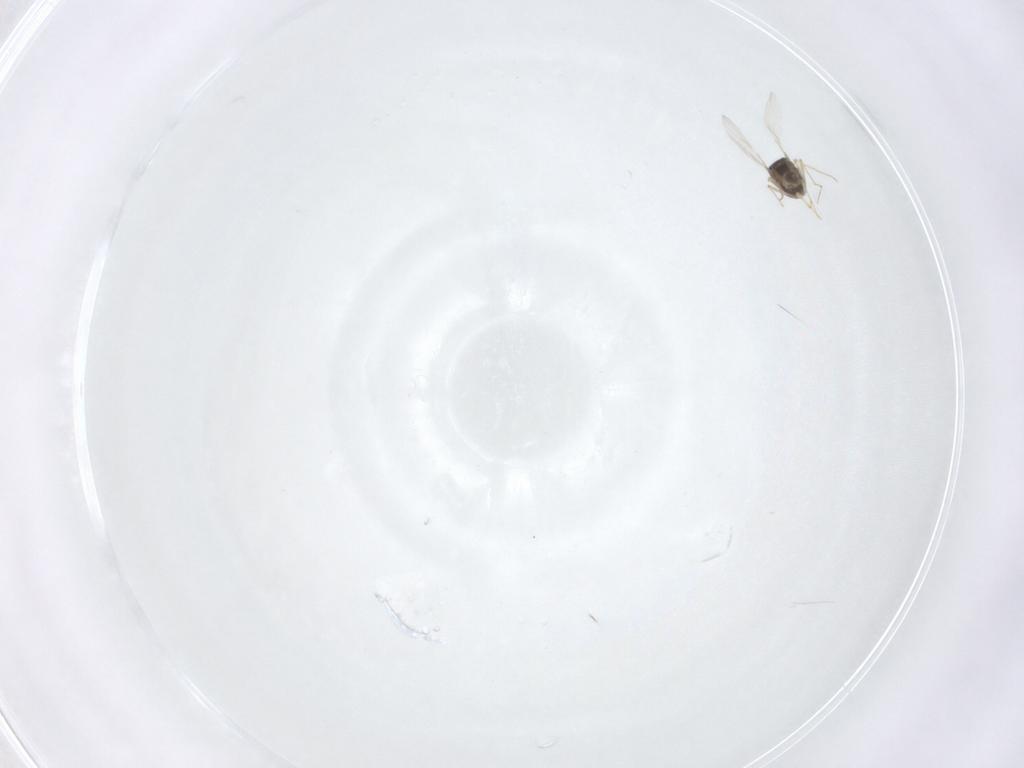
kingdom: Animalia
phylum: Arthropoda
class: Insecta
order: Diptera
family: Chironomidae
